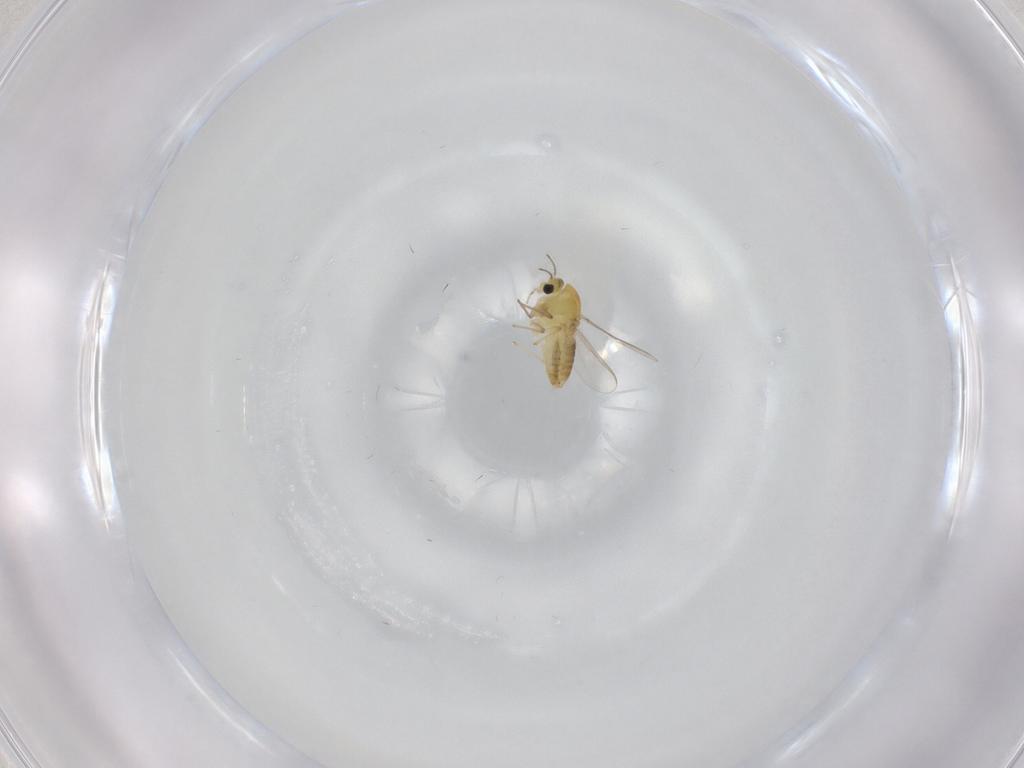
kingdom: Animalia
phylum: Arthropoda
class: Insecta
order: Diptera
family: Chironomidae
